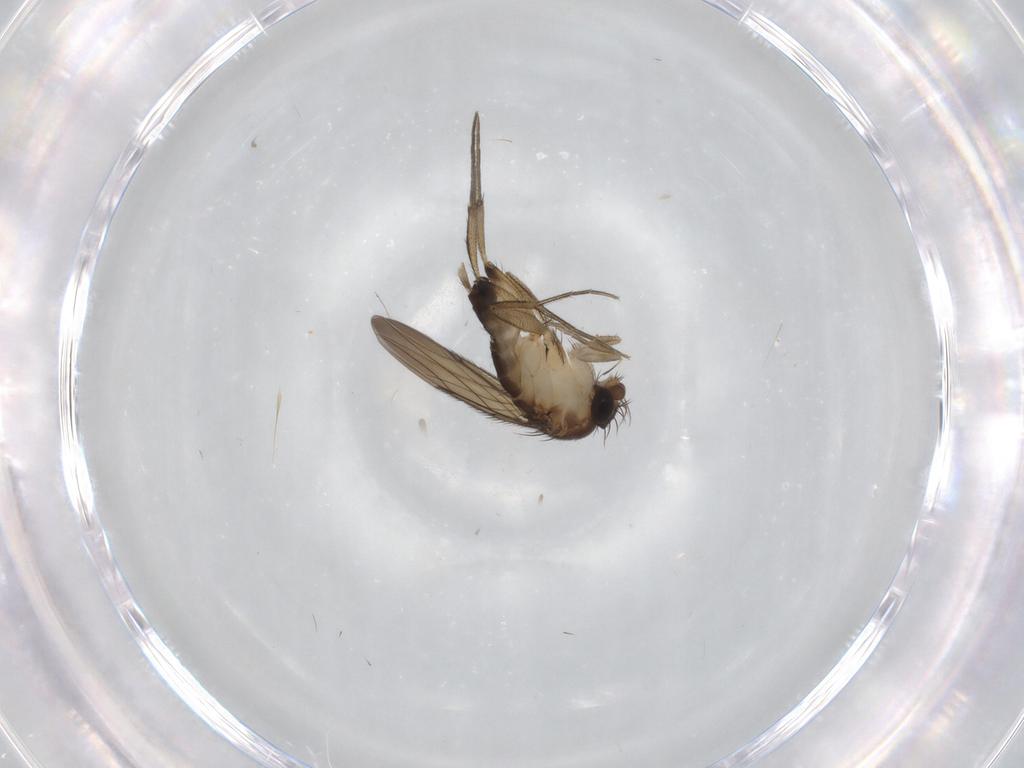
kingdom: Animalia
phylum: Arthropoda
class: Insecta
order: Diptera
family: Phoridae
